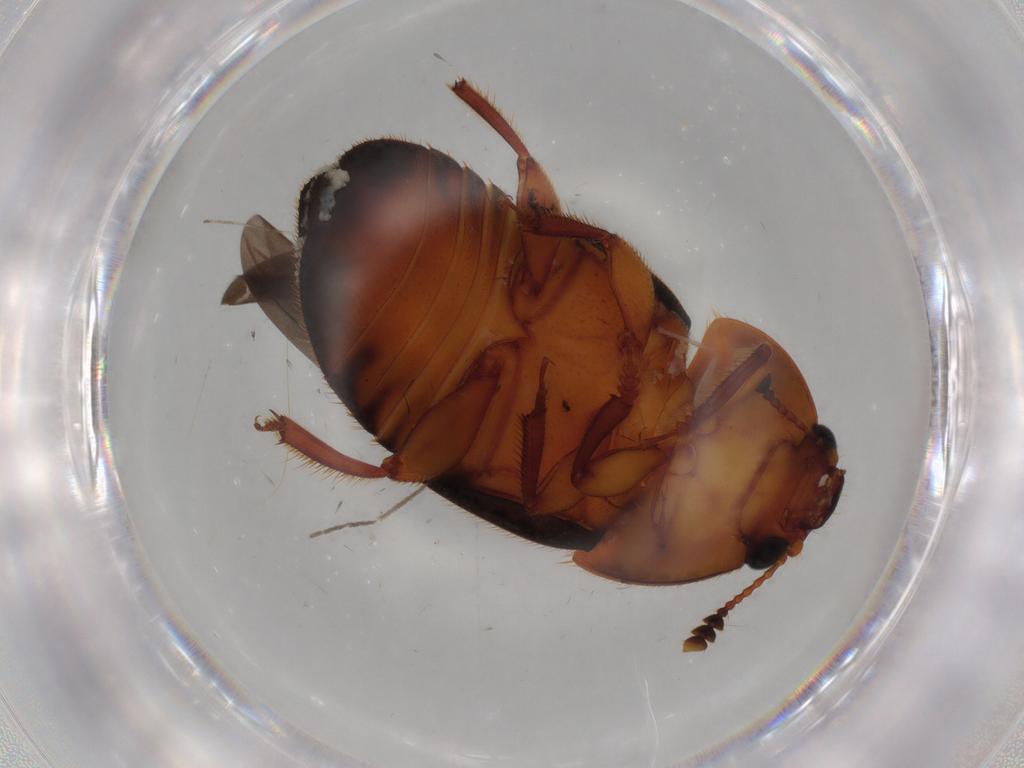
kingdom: Animalia
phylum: Arthropoda
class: Insecta
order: Coleoptera
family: Nitidulidae
